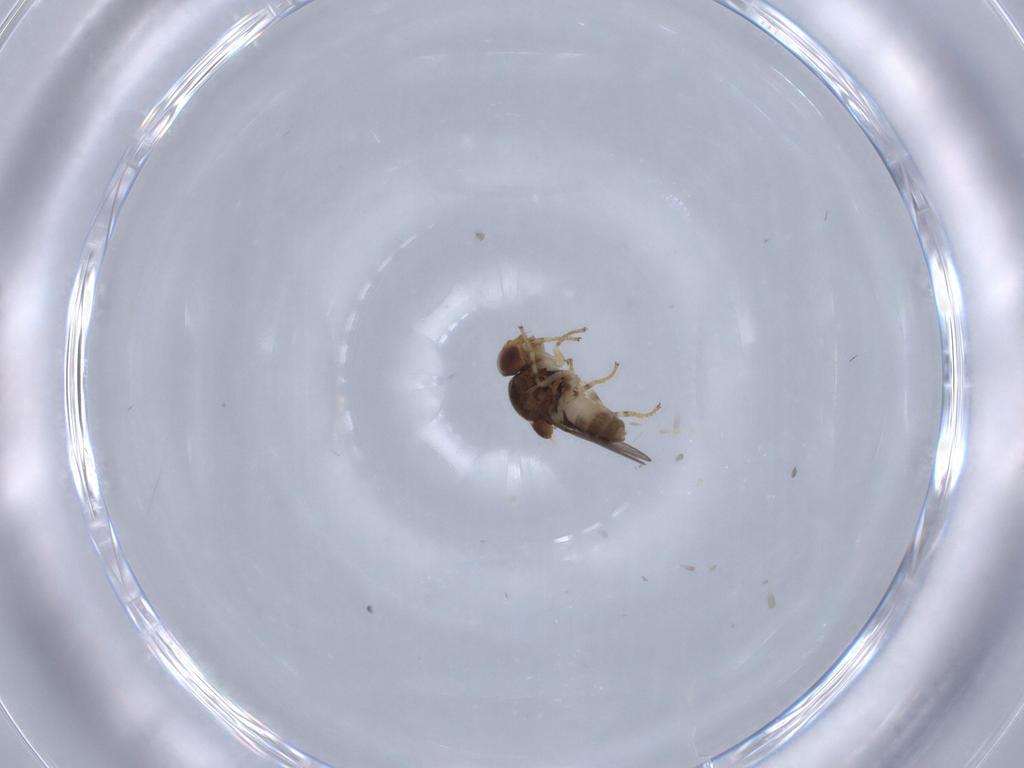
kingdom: Animalia
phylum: Arthropoda
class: Insecta
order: Diptera
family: Chloropidae
